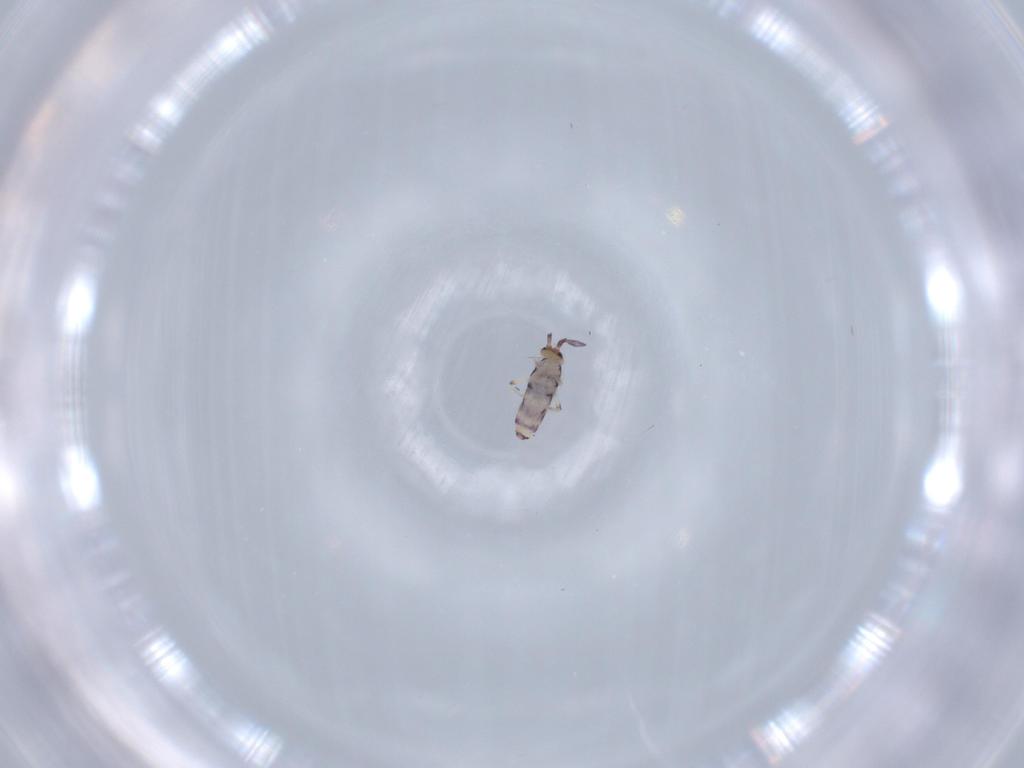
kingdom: Animalia
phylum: Arthropoda
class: Collembola
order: Entomobryomorpha
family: Entomobryidae
